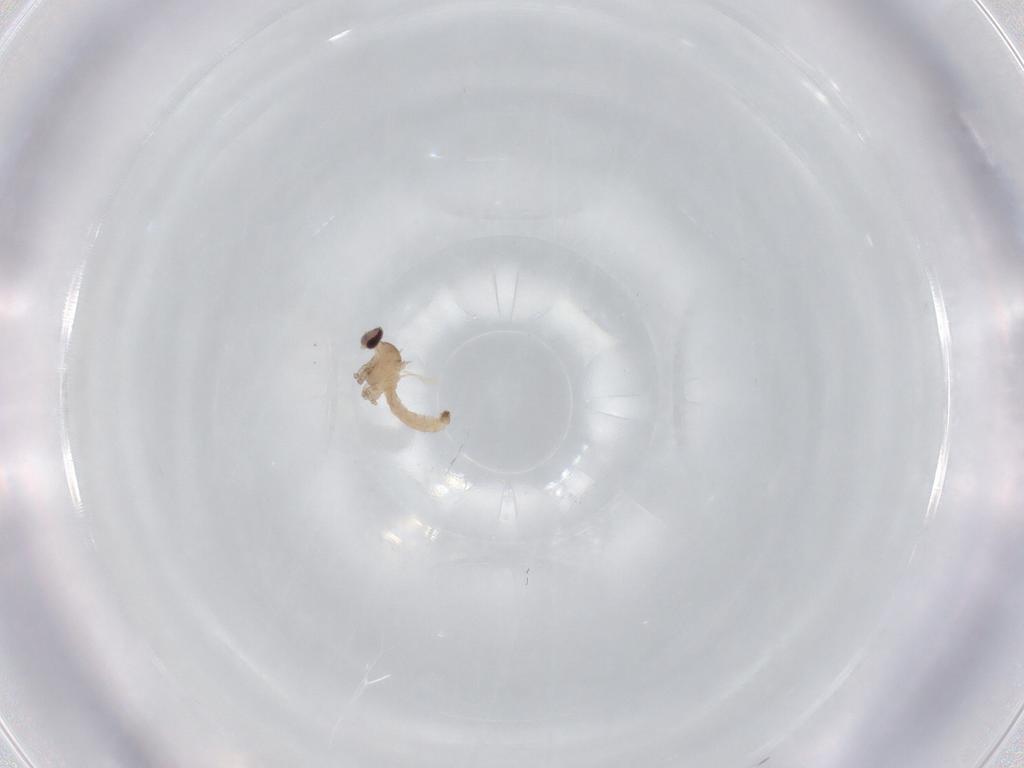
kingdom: Animalia
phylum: Arthropoda
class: Insecta
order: Diptera
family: Cecidomyiidae
